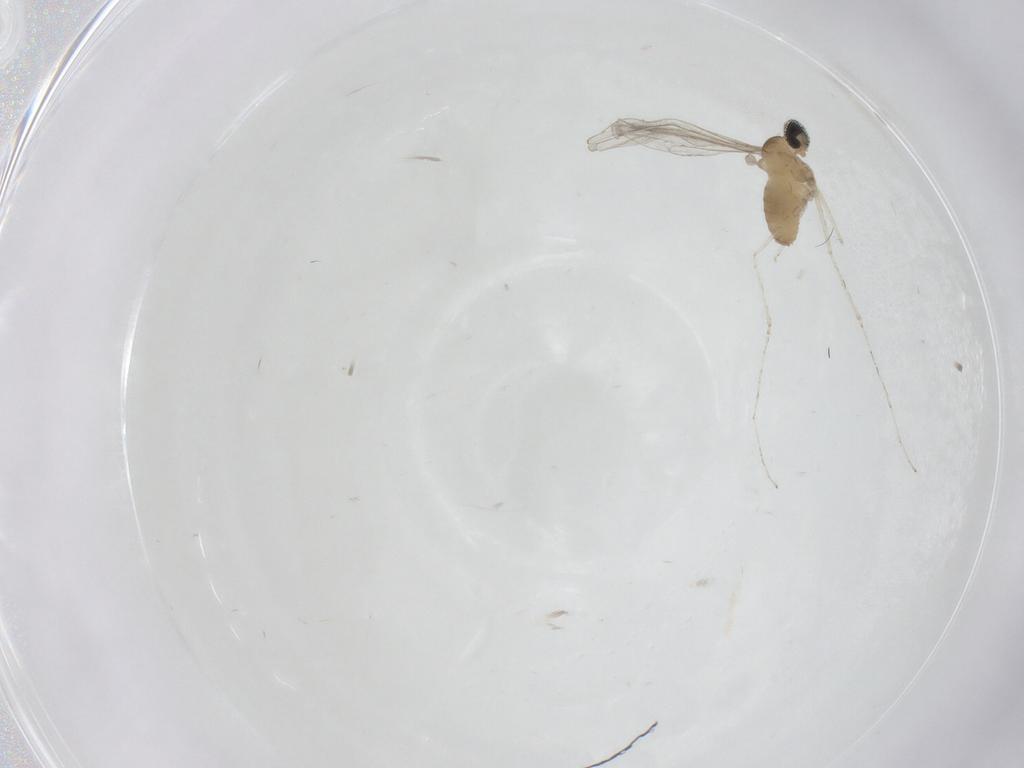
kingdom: Animalia
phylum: Arthropoda
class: Insecta
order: Diptera
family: Cecidomyiidae
